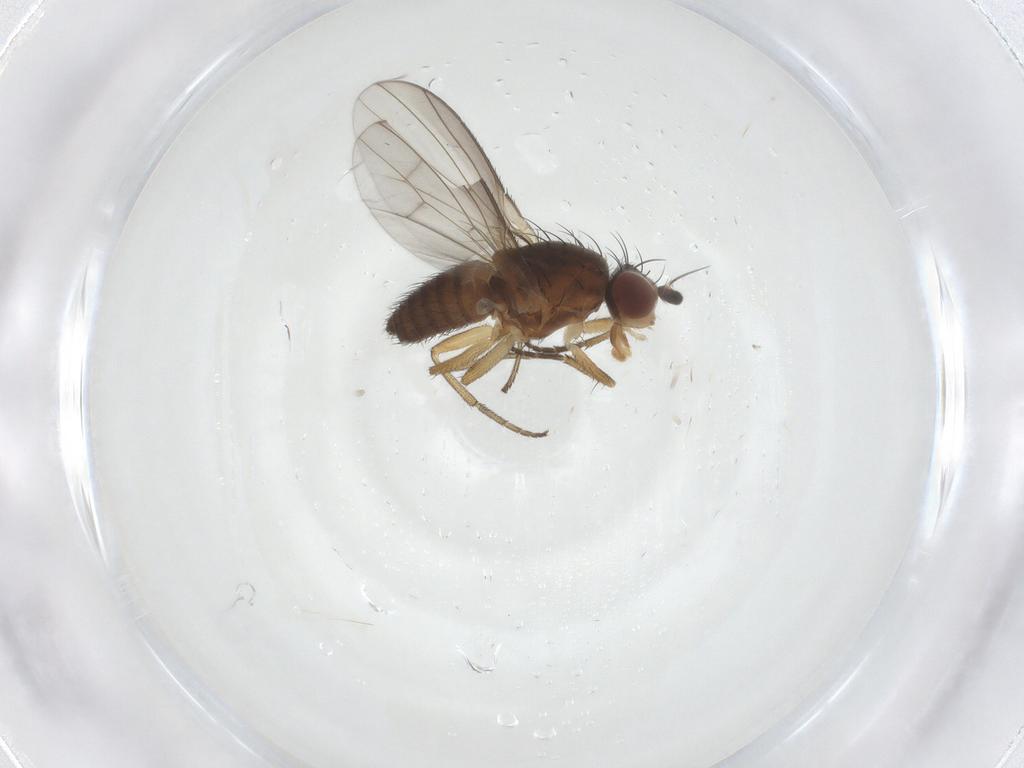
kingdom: Animalia
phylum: Arthropoda
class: Insecta
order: Diptera
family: Heleomyzidae
